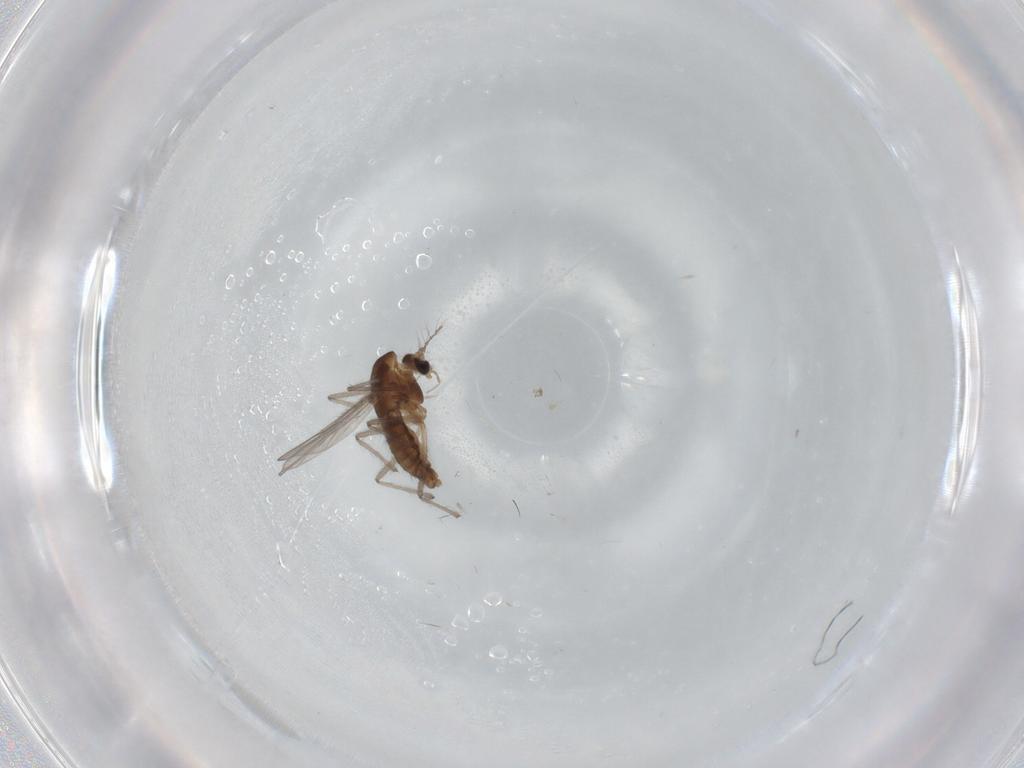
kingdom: Animalia
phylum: Arthropoda
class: Insecta
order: Diptera
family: Chironomidae
